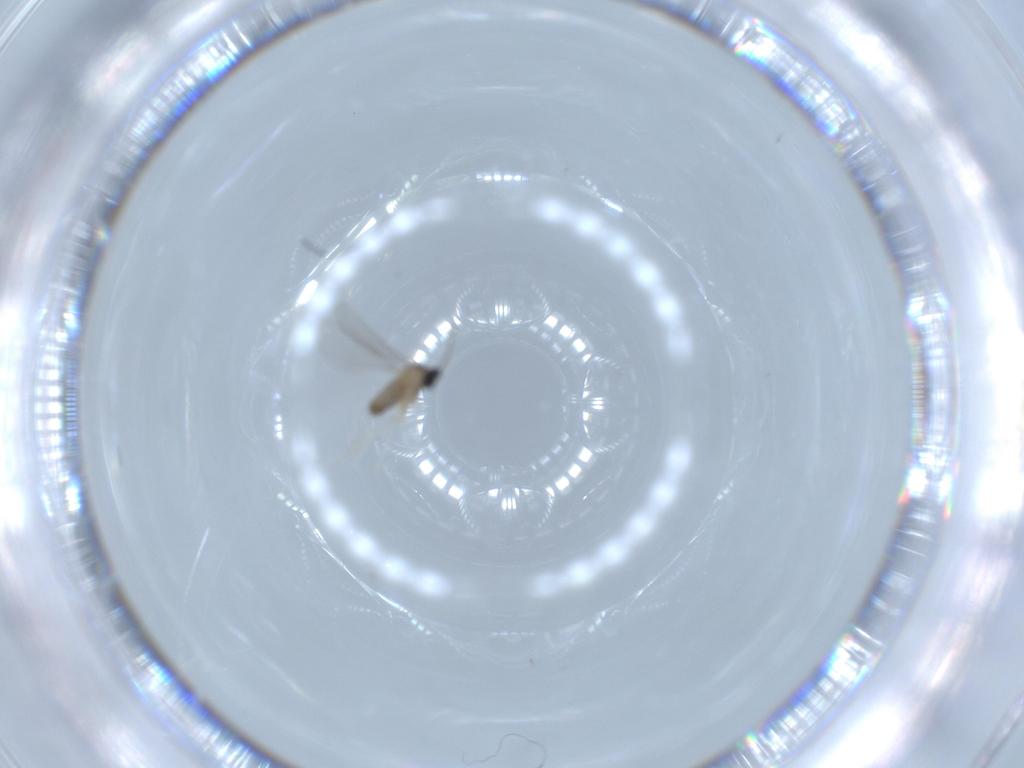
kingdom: Animalia
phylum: Arthropoda
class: Insecta
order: Diptera
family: Cecidomyiidae
